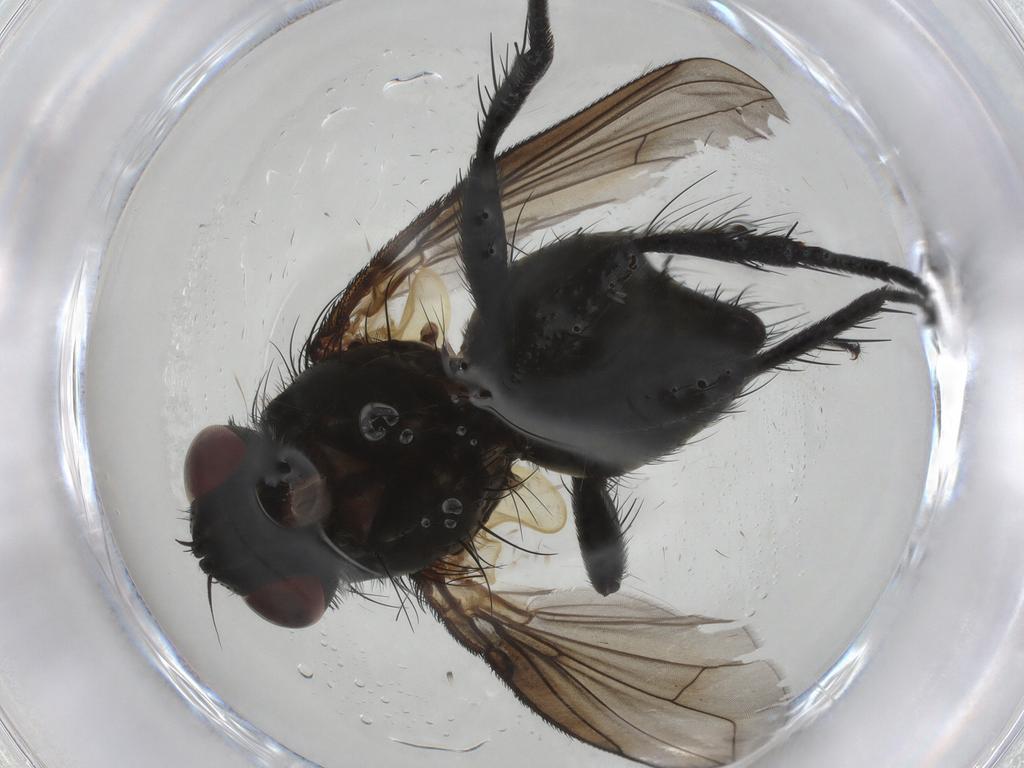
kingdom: Animalia
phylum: Arthropoda
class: Insecta
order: Diptera
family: Tachinidae
